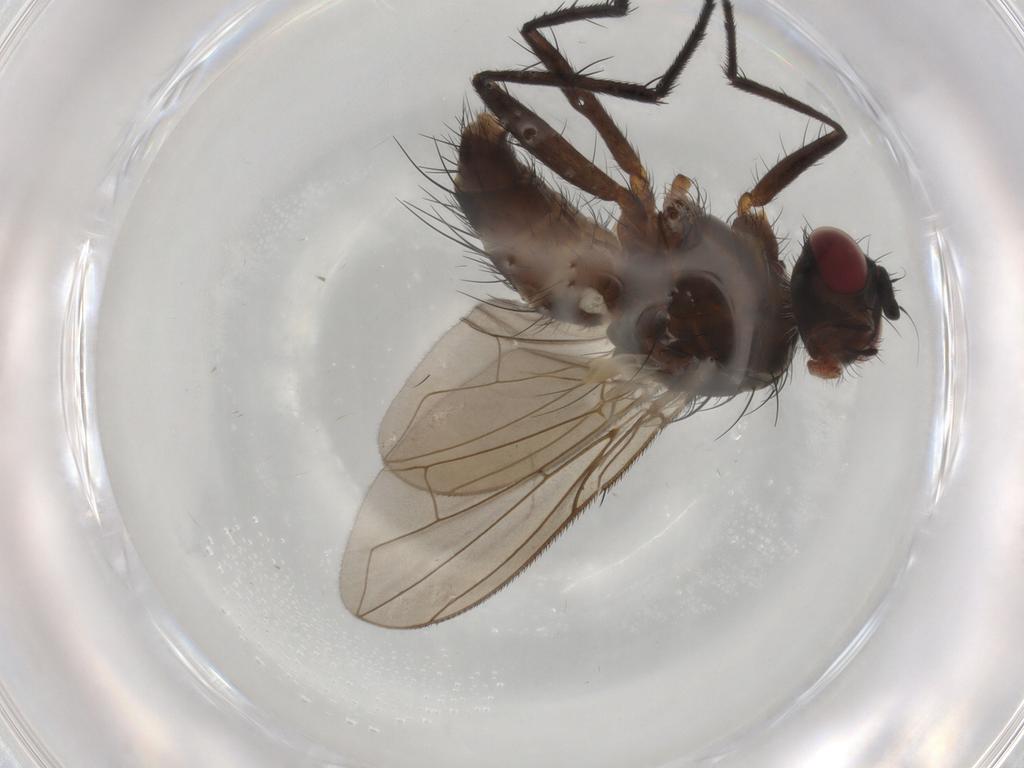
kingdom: Animalia
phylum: Arthropoda
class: Insecta
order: Diptera
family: Muscidae
